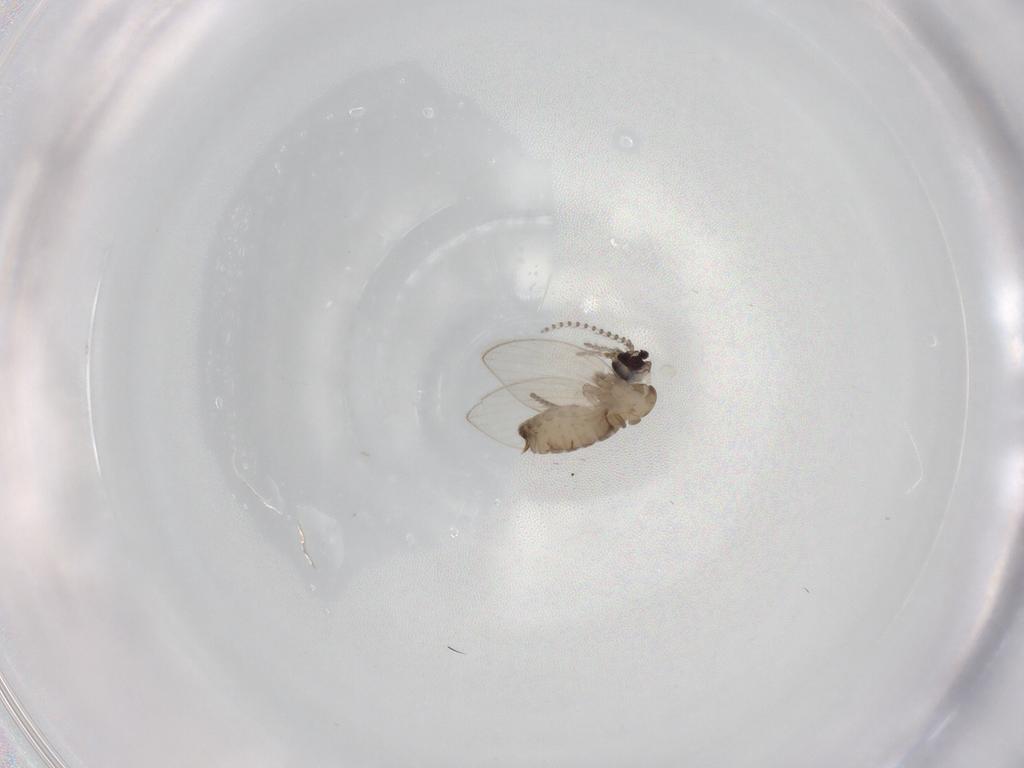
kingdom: Animalia
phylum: Arthropoda
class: Insecta
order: Diptera
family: Psychodidae
